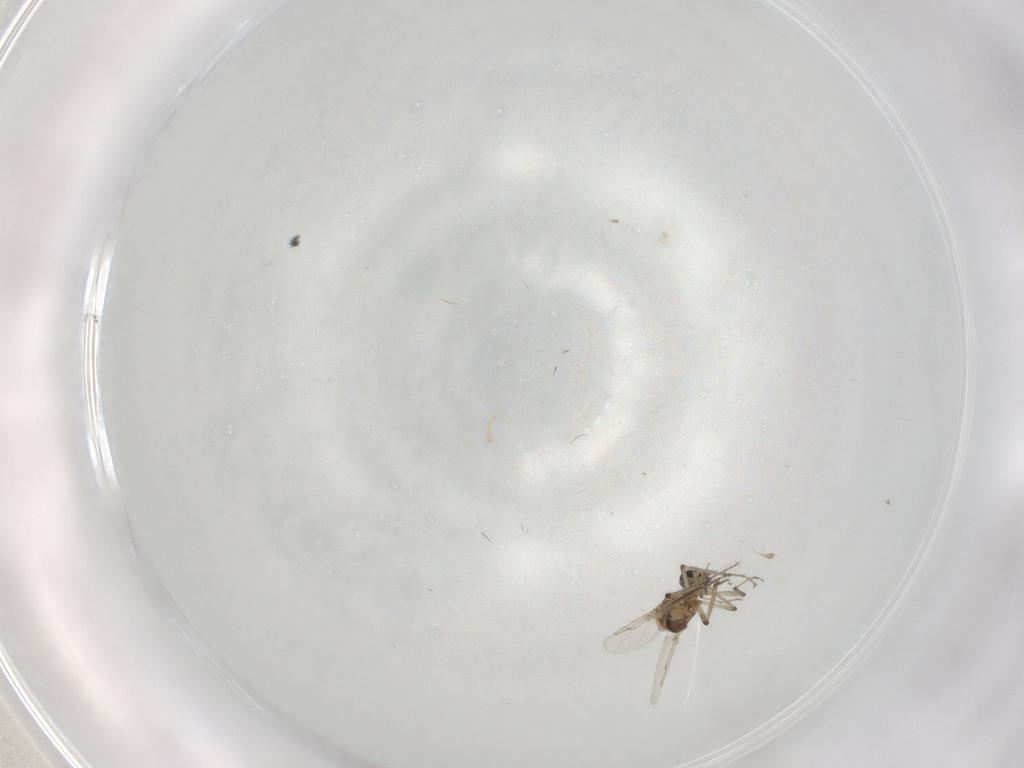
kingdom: Animalia
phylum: Arthropoda
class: Insecta
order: Diptera
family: Ceratopogonidae
